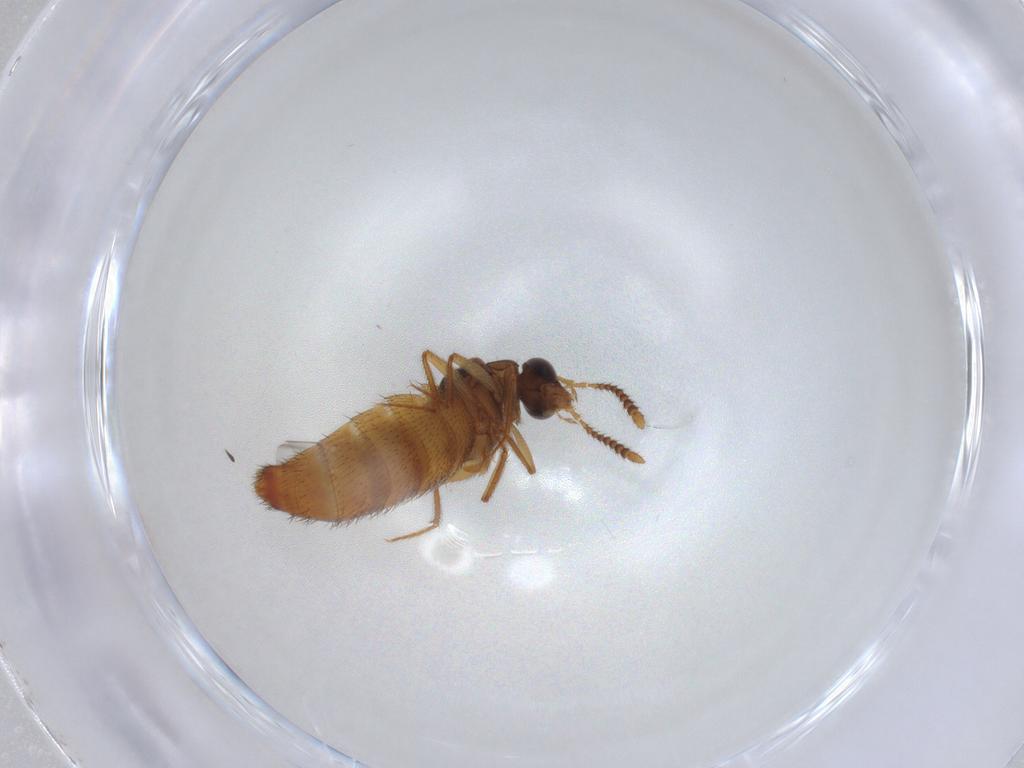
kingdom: Animalia
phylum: Arthropoda
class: Insecta
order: Coleoptera
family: Staphylinidae
